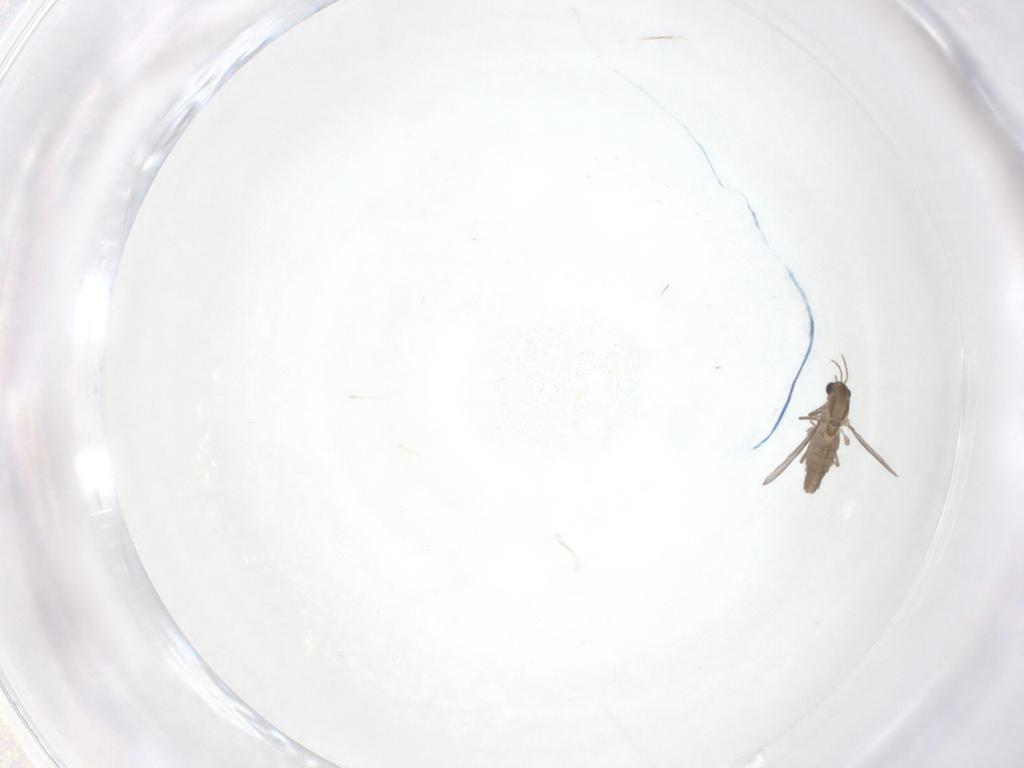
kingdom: Animalia
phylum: Arthropoda
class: Insecta
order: Diptera
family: Chironomidae
